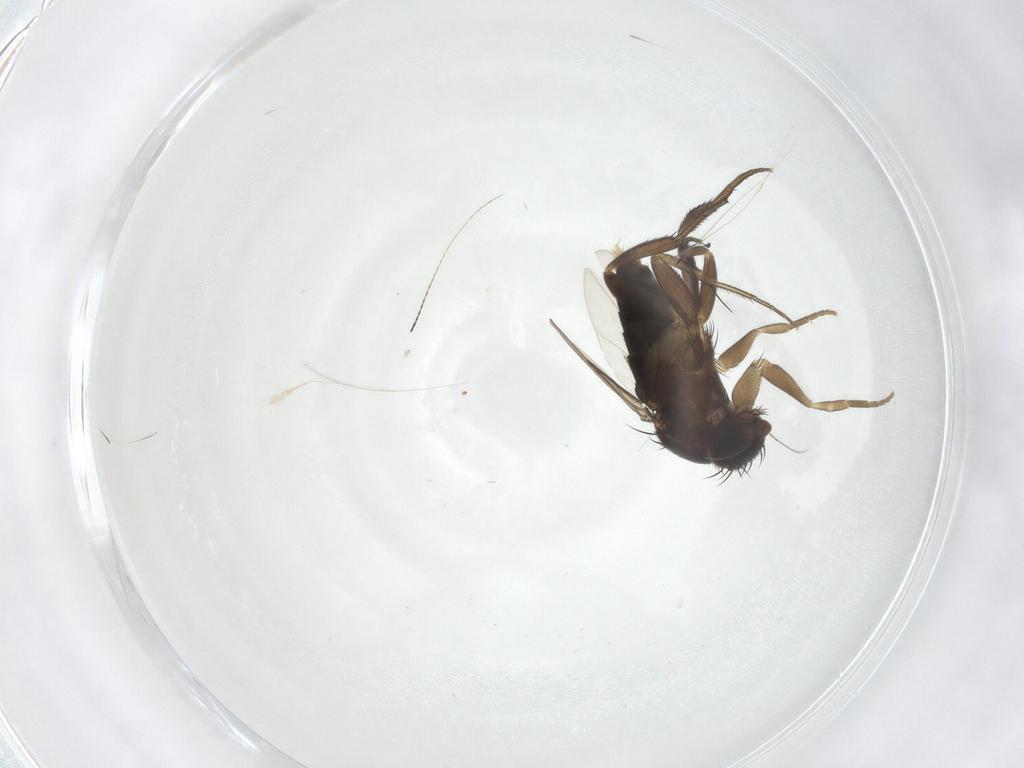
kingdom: Animalia
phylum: Arthropoda
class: Insecta
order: Diptera
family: Phoridae
